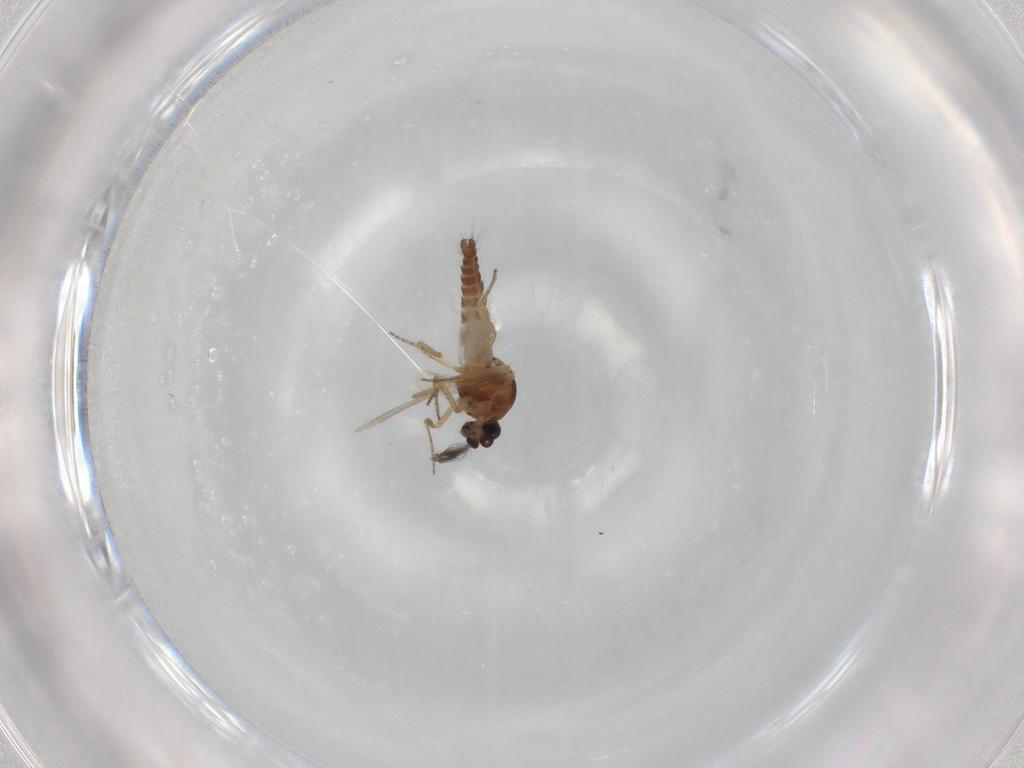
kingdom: Animalia
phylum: Arthropoda
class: Insecta
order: Diptera
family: Ceratopogonidae
